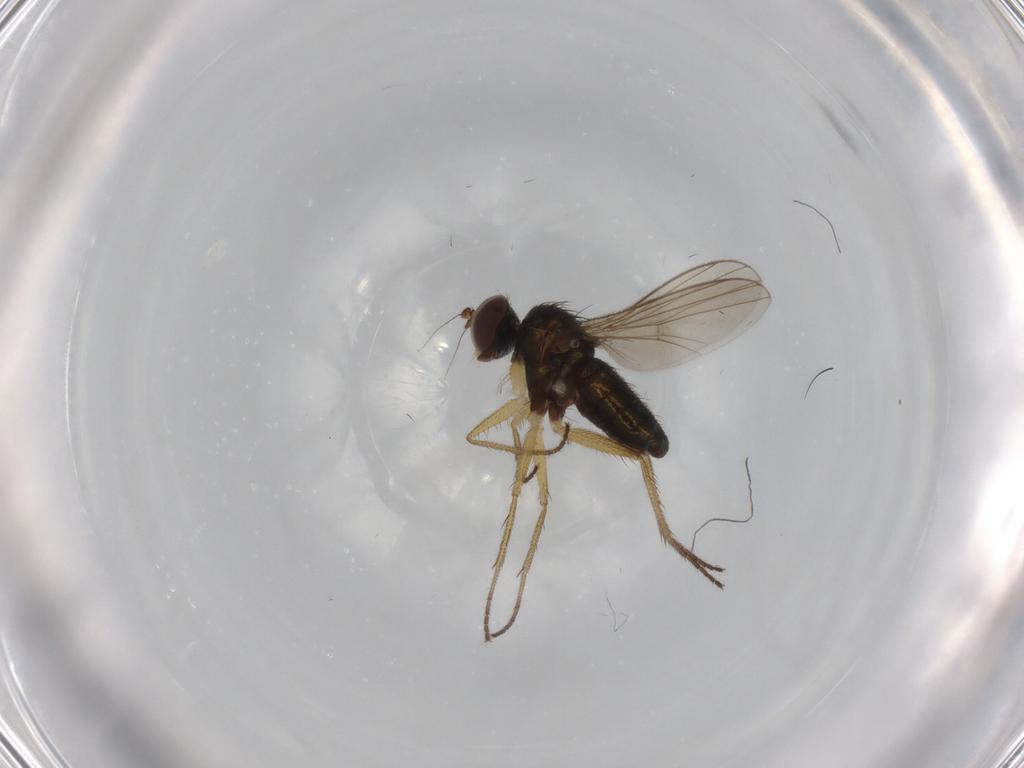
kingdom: Animalia
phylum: Arthropoda
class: Insecta
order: Diptera
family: Dolichopodidae
